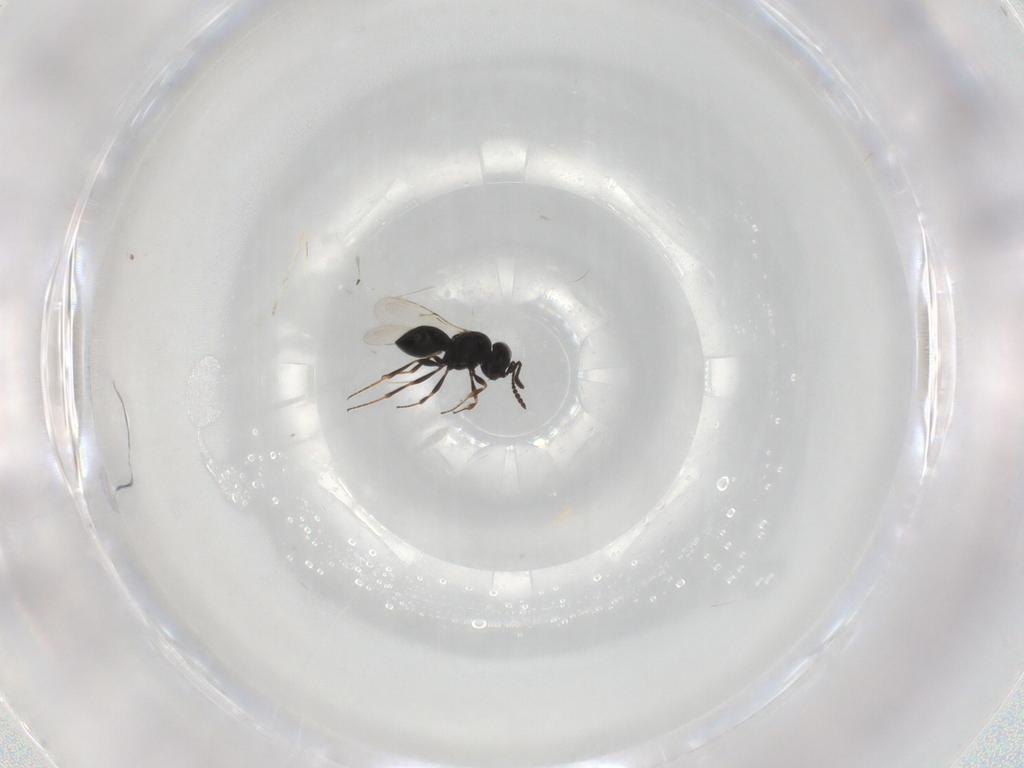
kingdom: Animalia
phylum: Arthropoda
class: Insecta
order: Hymenoptera
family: Scelionidae
